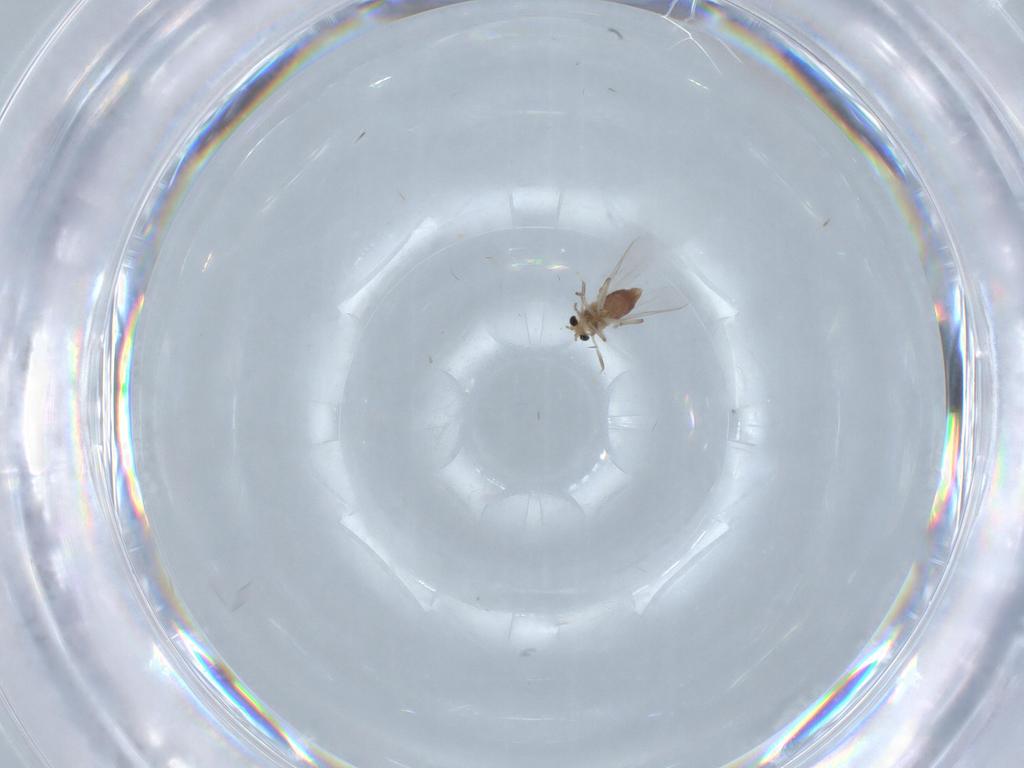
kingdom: Animalia
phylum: Arthropoda
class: Insecta
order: Diptera
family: Chironomidae
